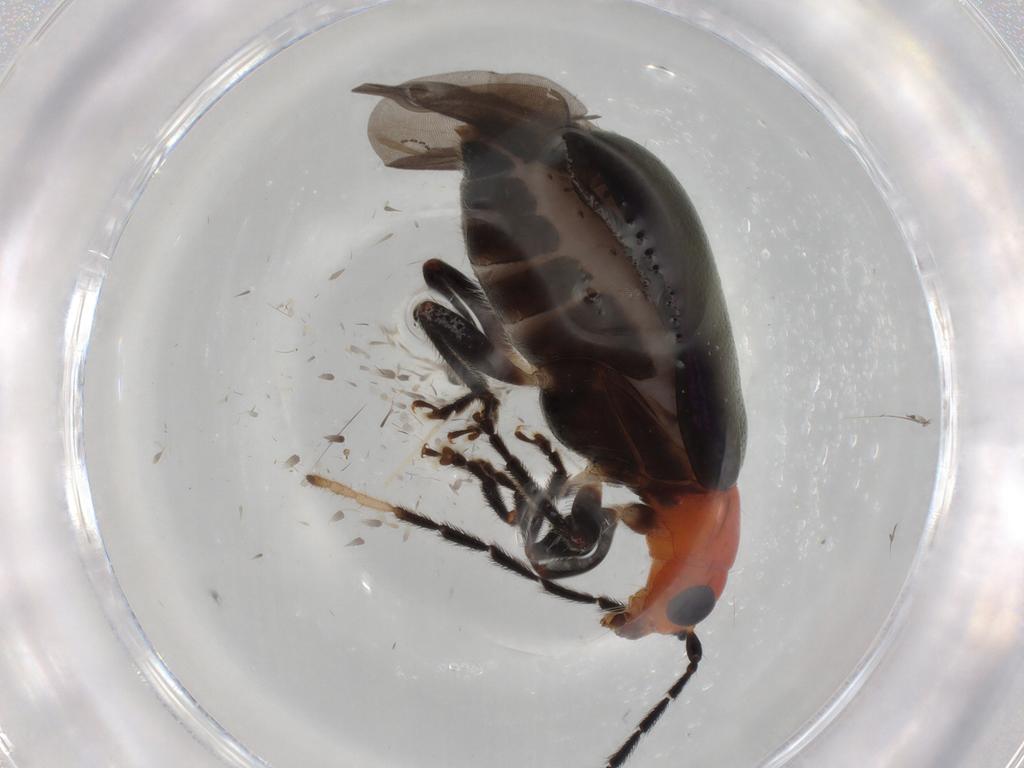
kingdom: Animalia
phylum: Arthropoda
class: Insecta
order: Coleoptera
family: Chrysomelidae
